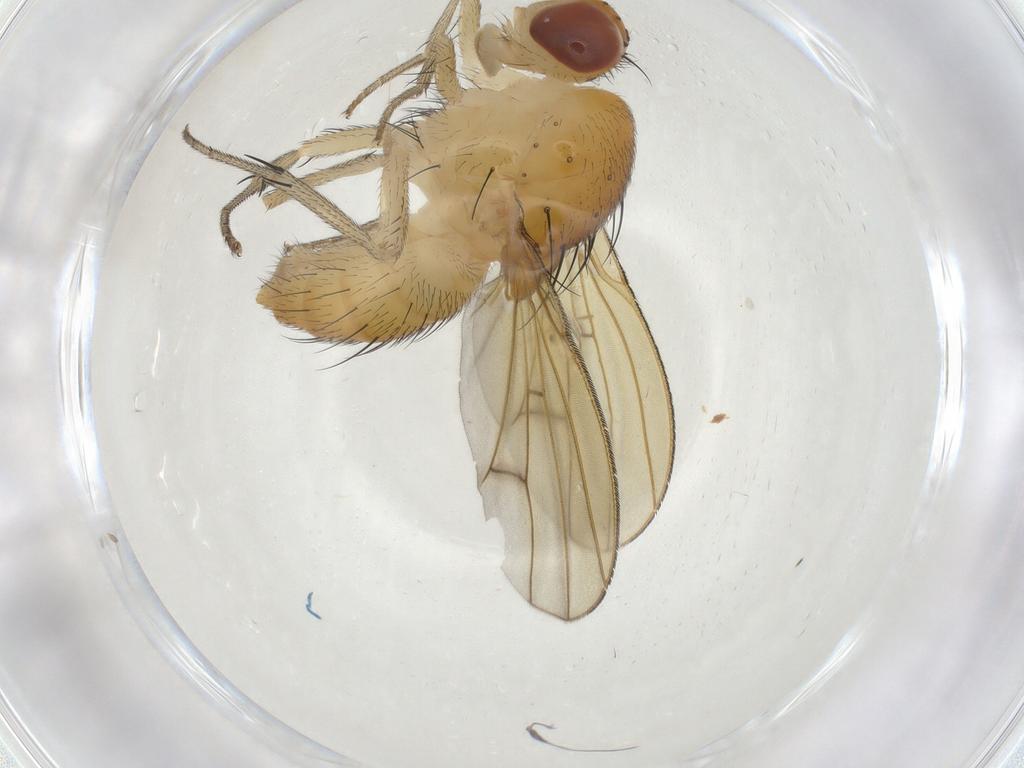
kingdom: Animalia
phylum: Arthropoda
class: Insecta
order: Diptera
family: Lauxaniidae
